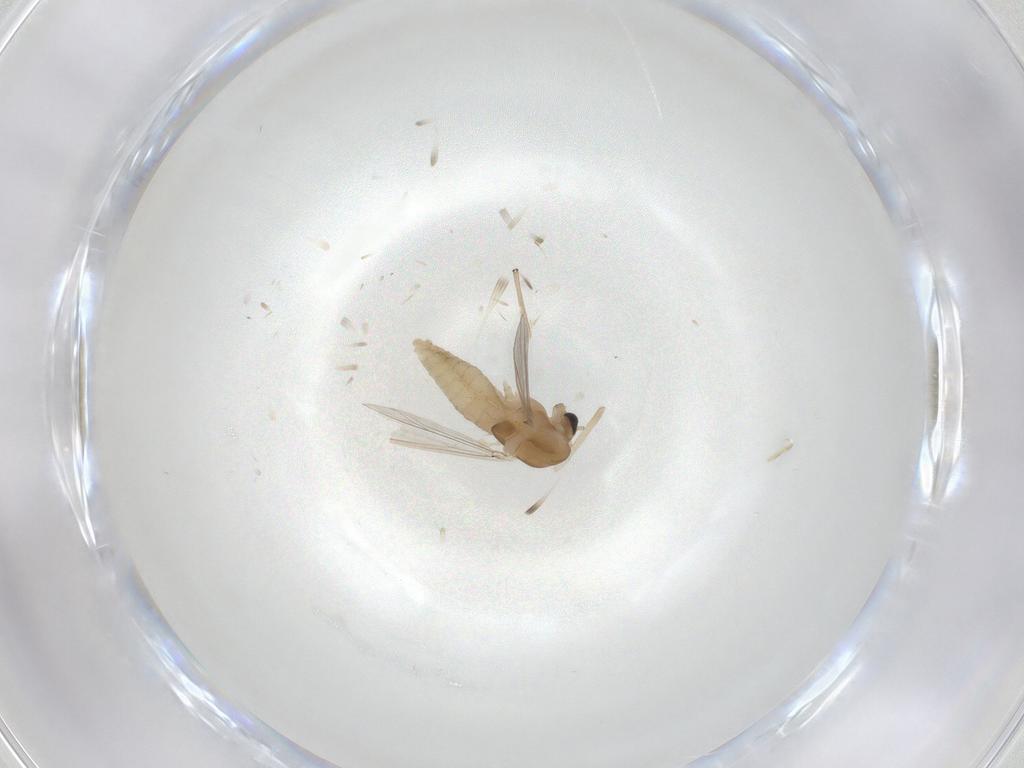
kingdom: Animalia
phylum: Arthropoda
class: Insecta
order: Diptera
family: Chironomidae
